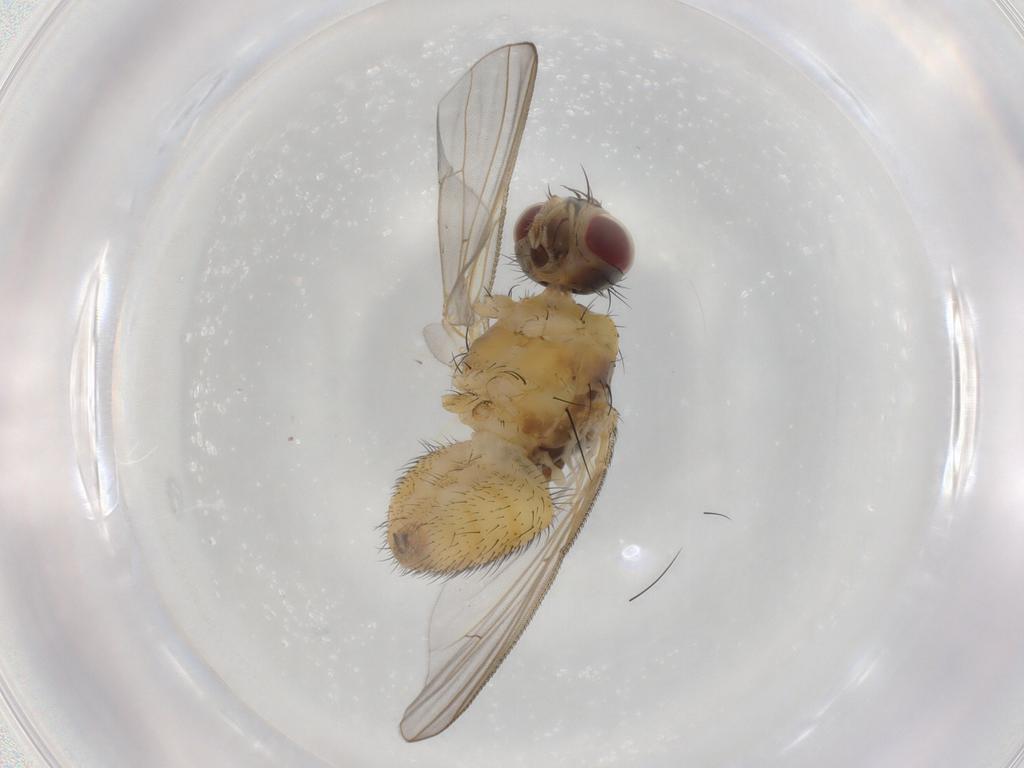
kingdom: Animalia
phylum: Arthropoda
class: Insecta
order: Diptera
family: Muscidae
